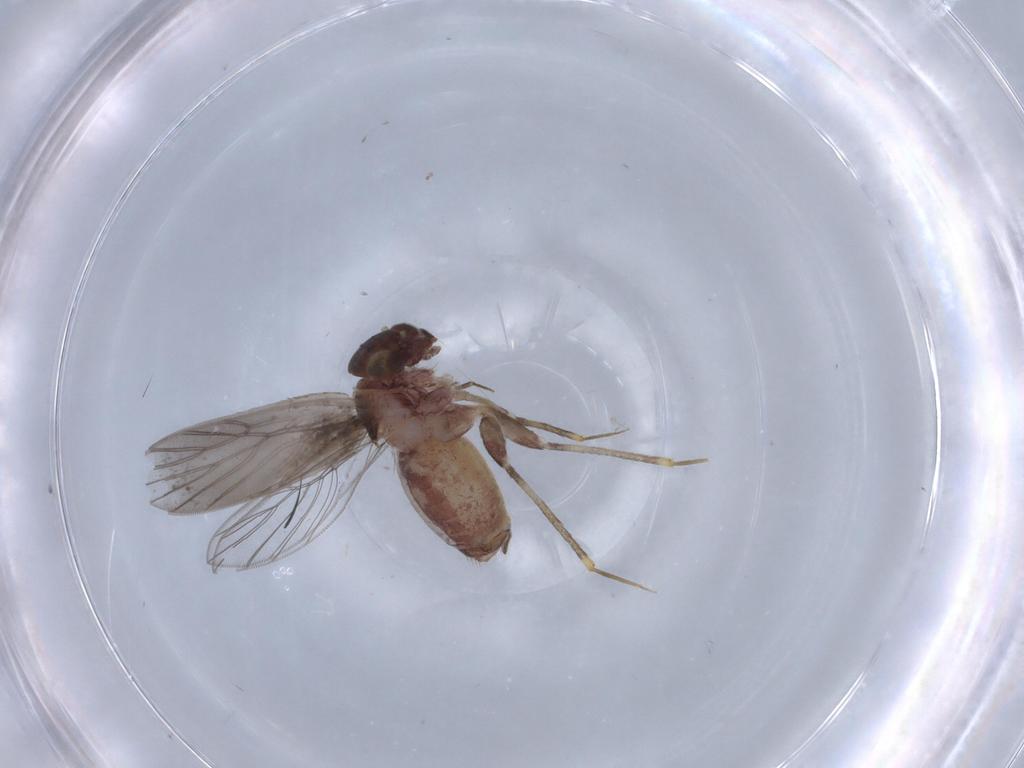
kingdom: Animalia
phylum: Arthropoda
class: Insecta
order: Psocodea
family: Lepidopsocidae
